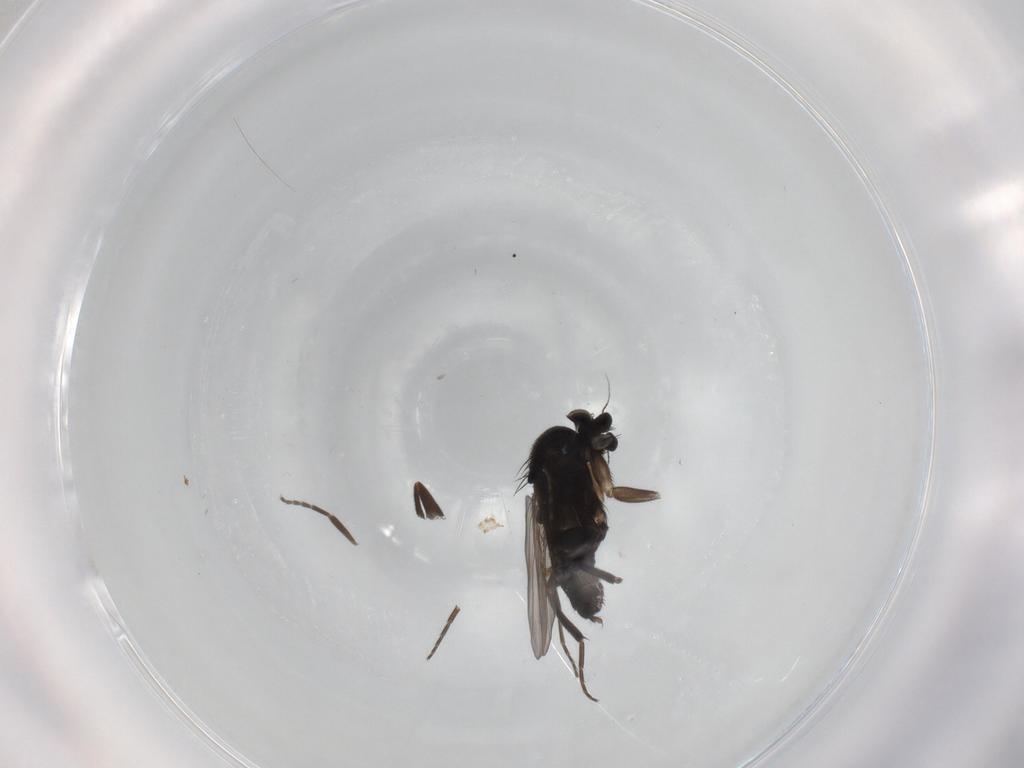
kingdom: Animalia
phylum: Arthropoda
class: Insecta
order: Diptera
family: Phoridae
